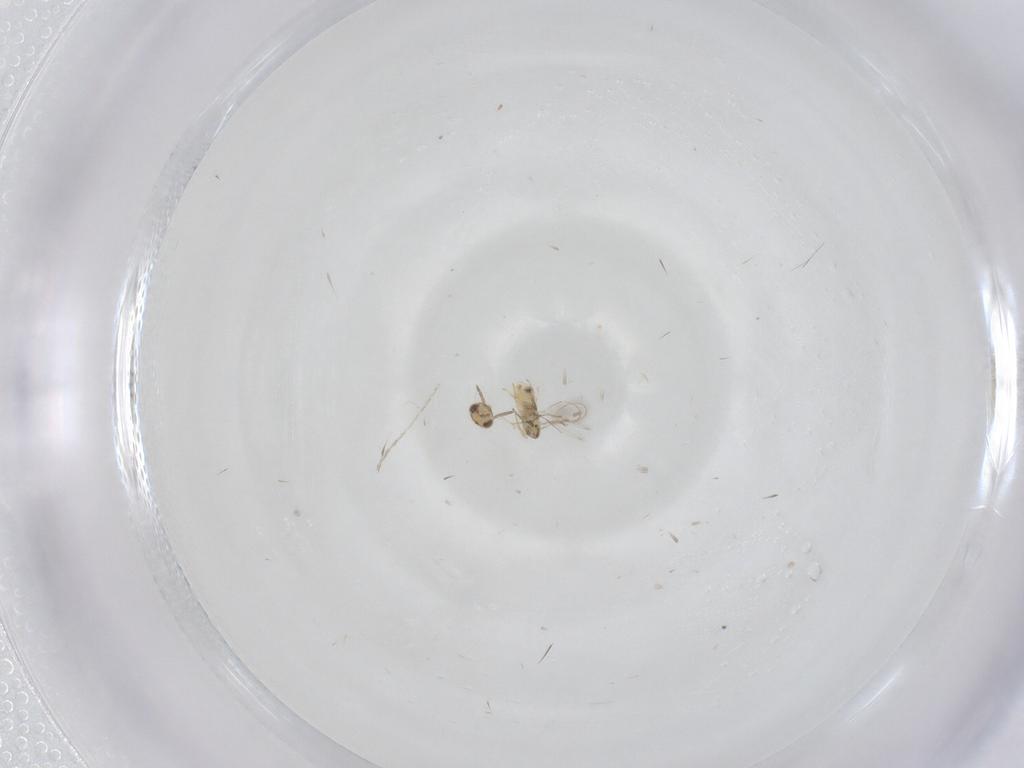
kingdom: Animalia
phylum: Arthropoda
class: Insecta
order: Hymenoptera
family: Aphelinidae
